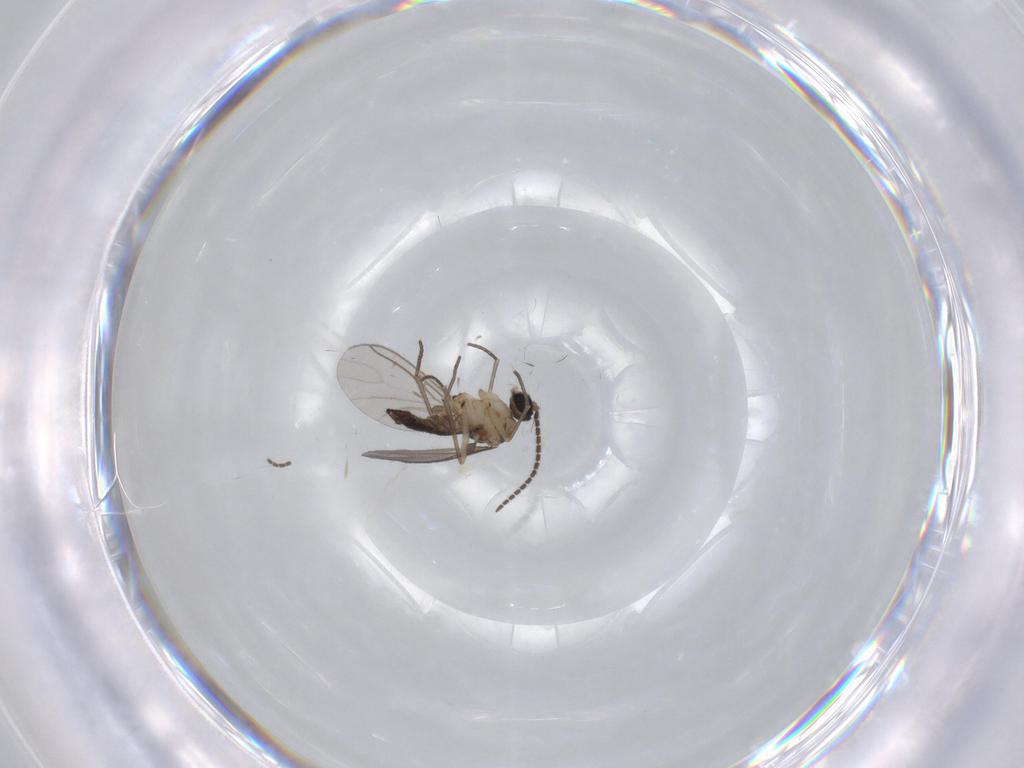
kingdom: Animalia
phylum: Arthropoda
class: Insecta
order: Diptera
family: Sciaridae
